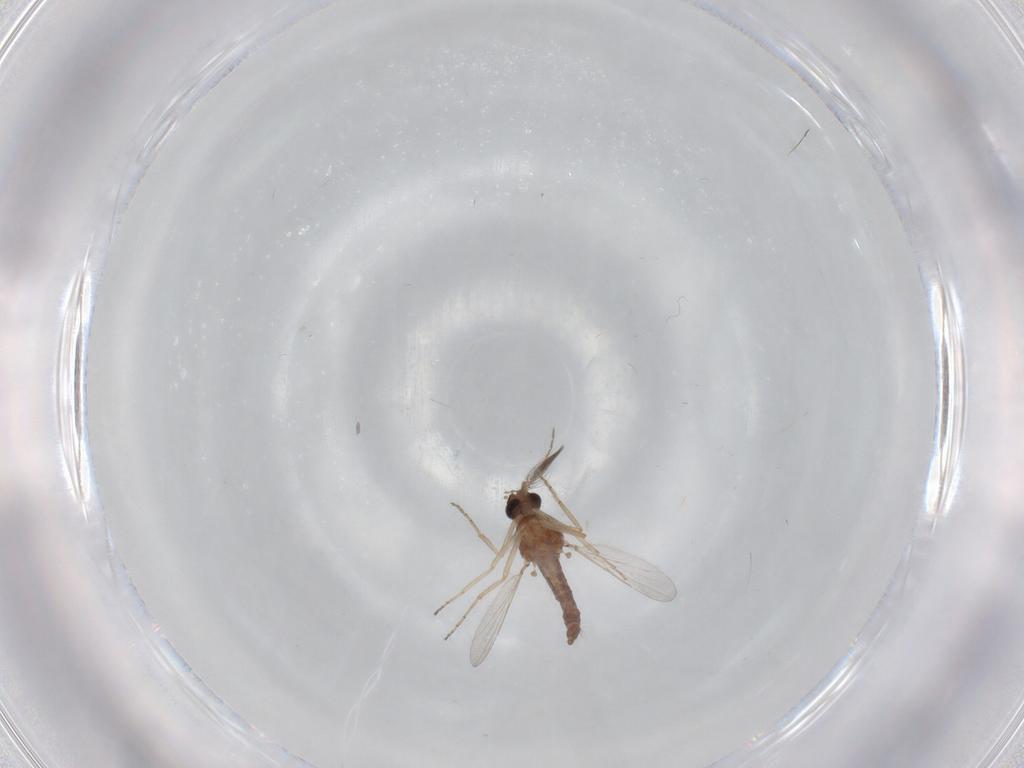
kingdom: Animalia
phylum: Arthropoda
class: Insecta
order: Diptera
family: Ceratopogonidae
